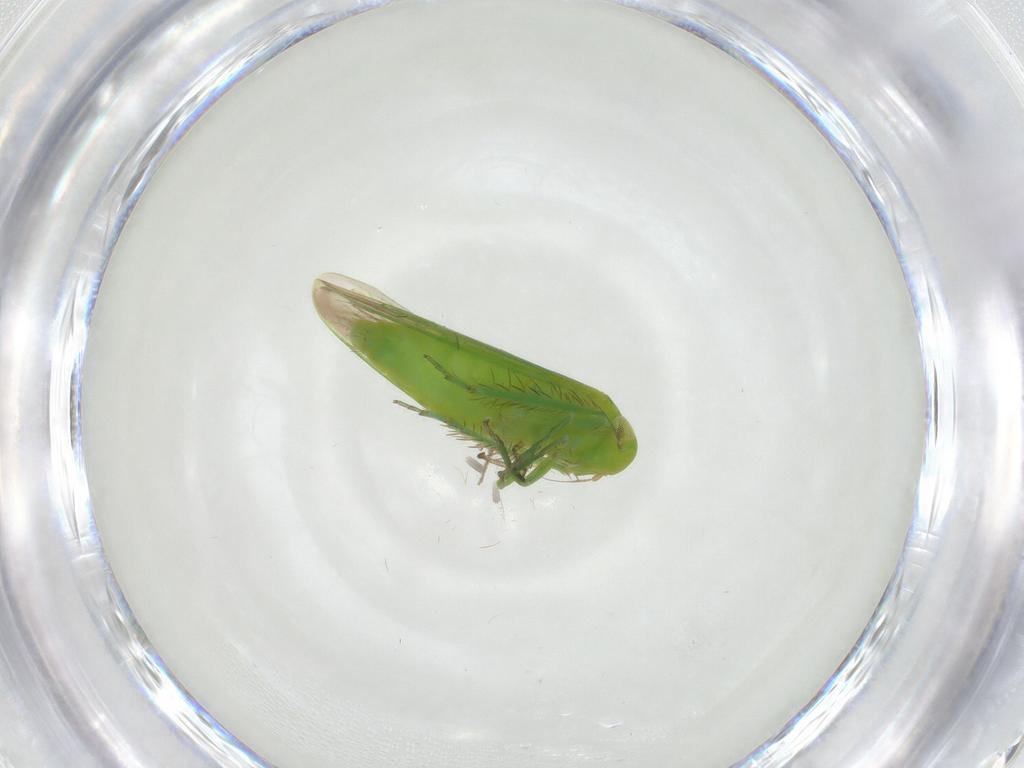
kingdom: Animalia
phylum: Arthropoda
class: Insecta
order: Hemiptera
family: Cicadellidae
